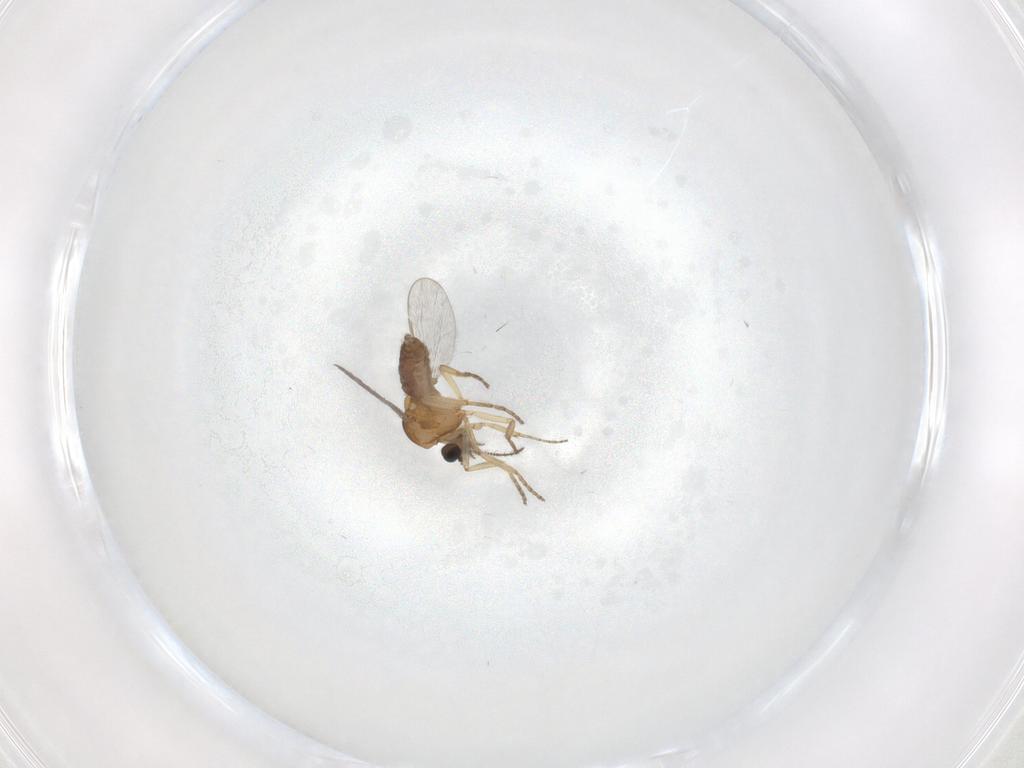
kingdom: Animalia
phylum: Arthropoda
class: Insecta
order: Diptera
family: Ceratopogonidae
